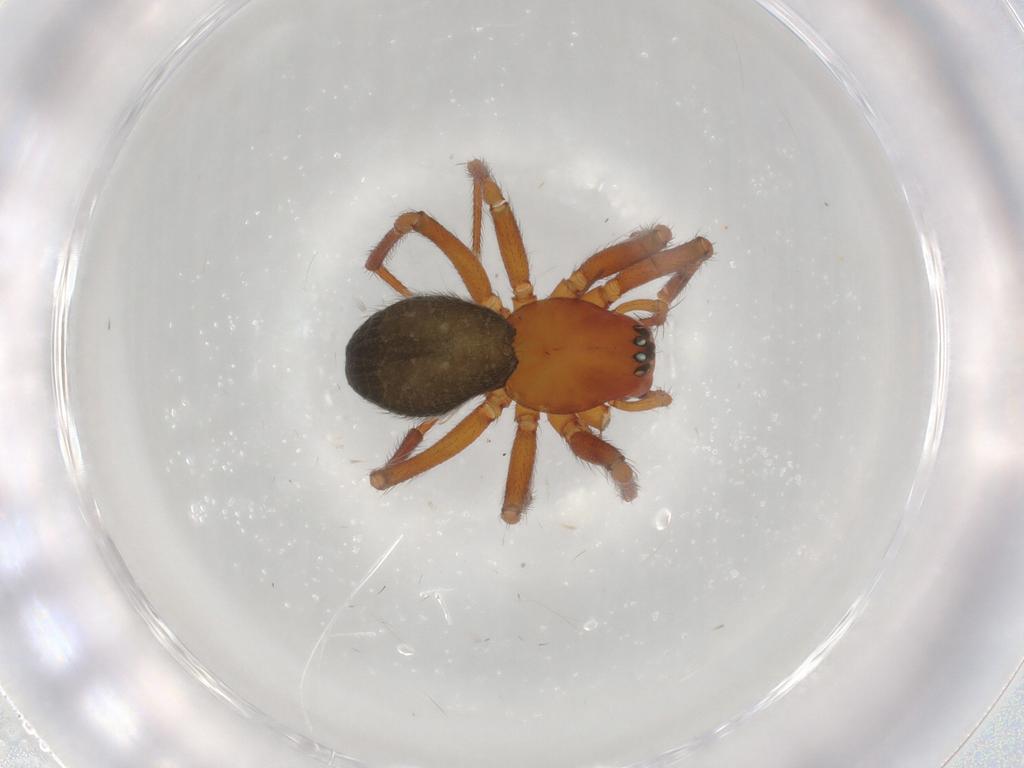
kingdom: Animalia
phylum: Arthropoda
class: Arachnida
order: Araneae
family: Linyphiidae
